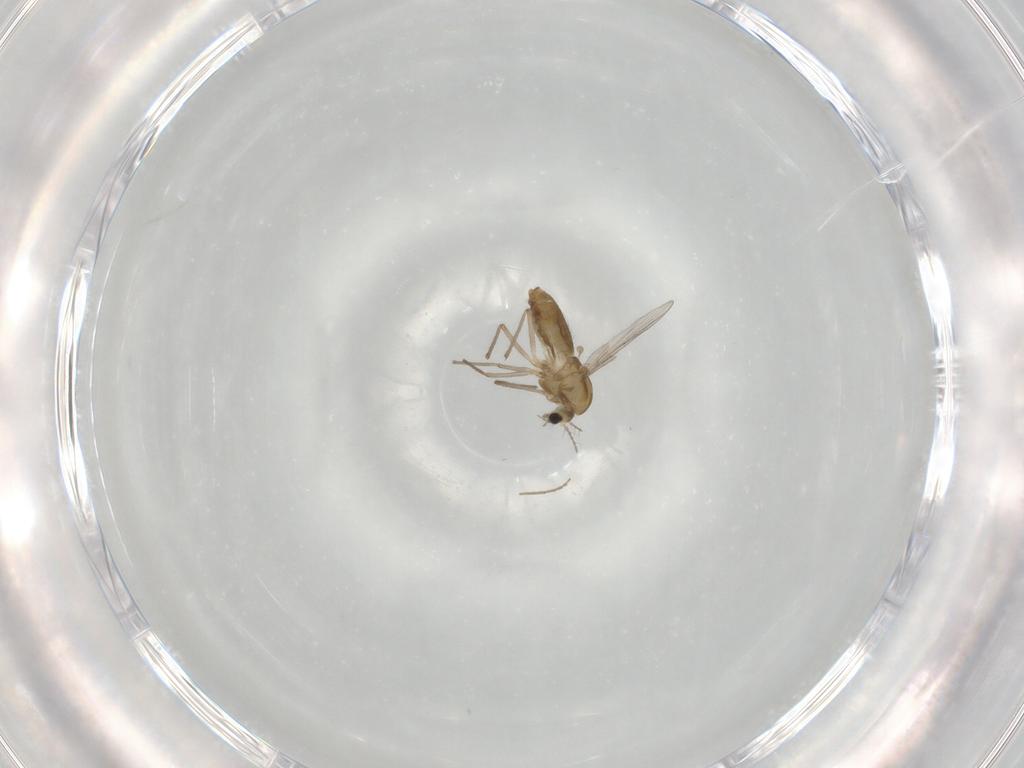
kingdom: Animalia
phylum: Arthropoda
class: Insecta
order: Diptera
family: Chironomidae
